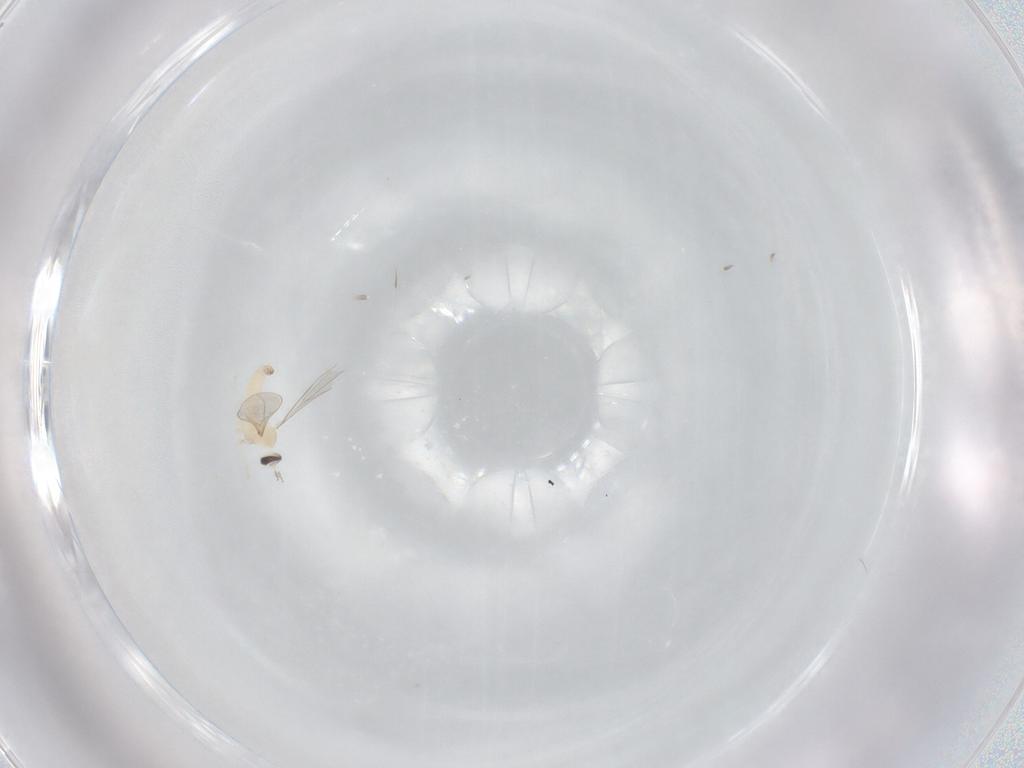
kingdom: Animalia
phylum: Arthropoda
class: Insecta
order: Diptera
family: Cecidomyiidae
